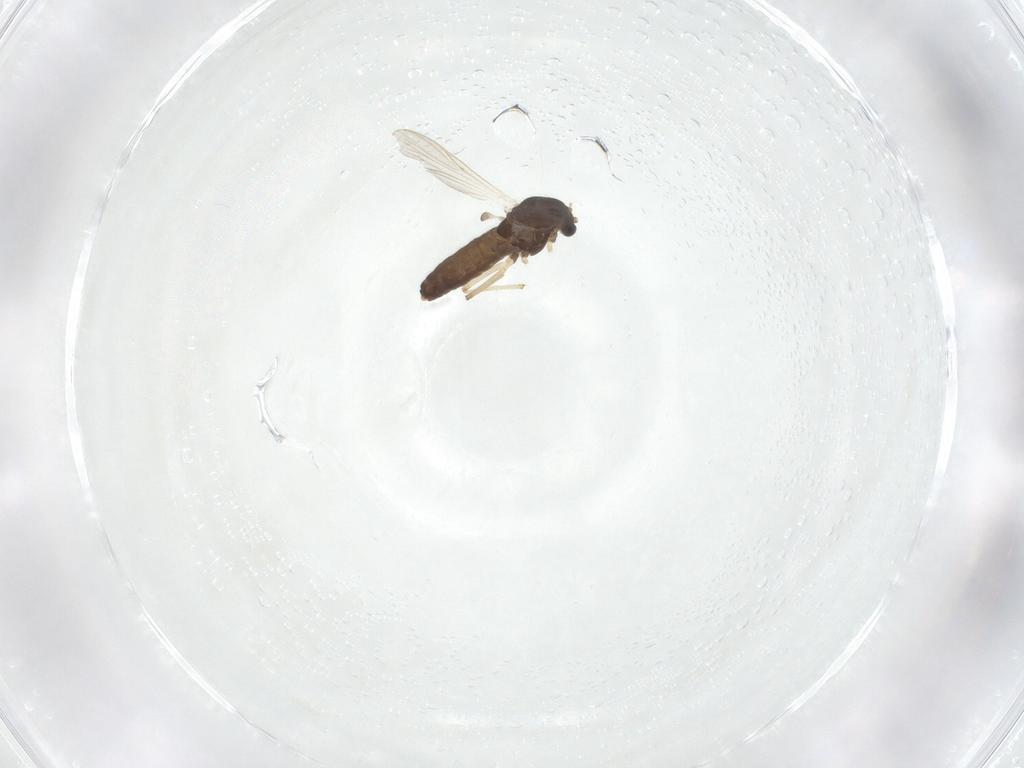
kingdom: Animalia
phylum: Arthropoda
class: Insecta
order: Diptera
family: Chironomidae
